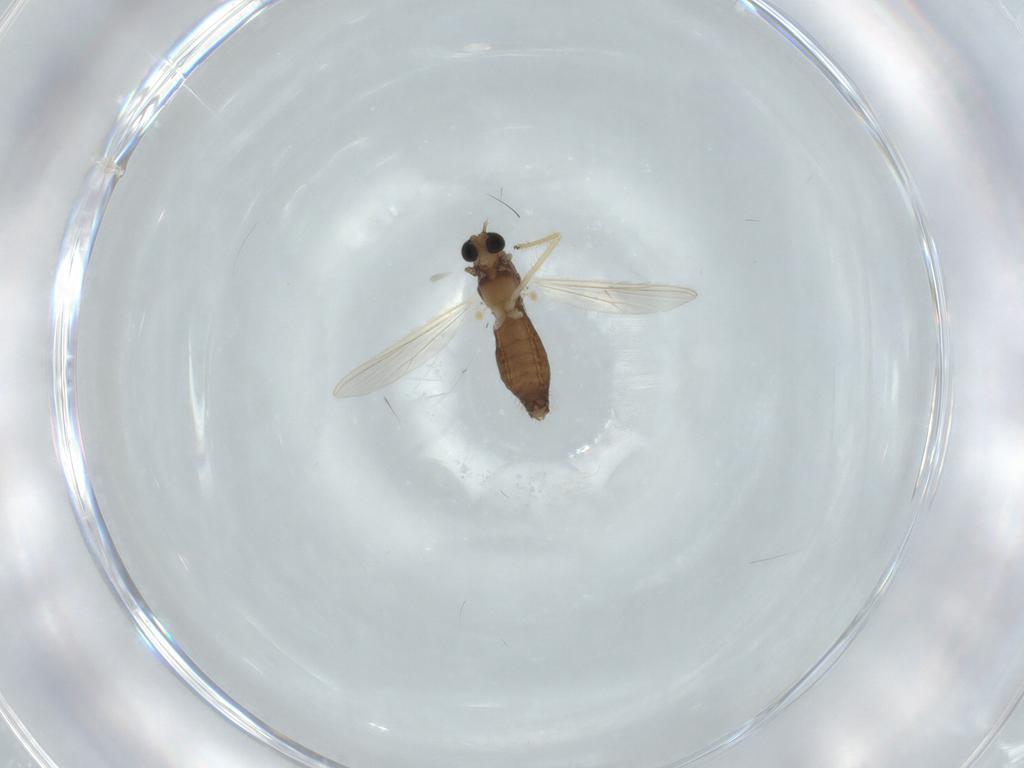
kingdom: Animalia
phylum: Arthropoda
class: Insecta
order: Diptera
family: Chironomidae
